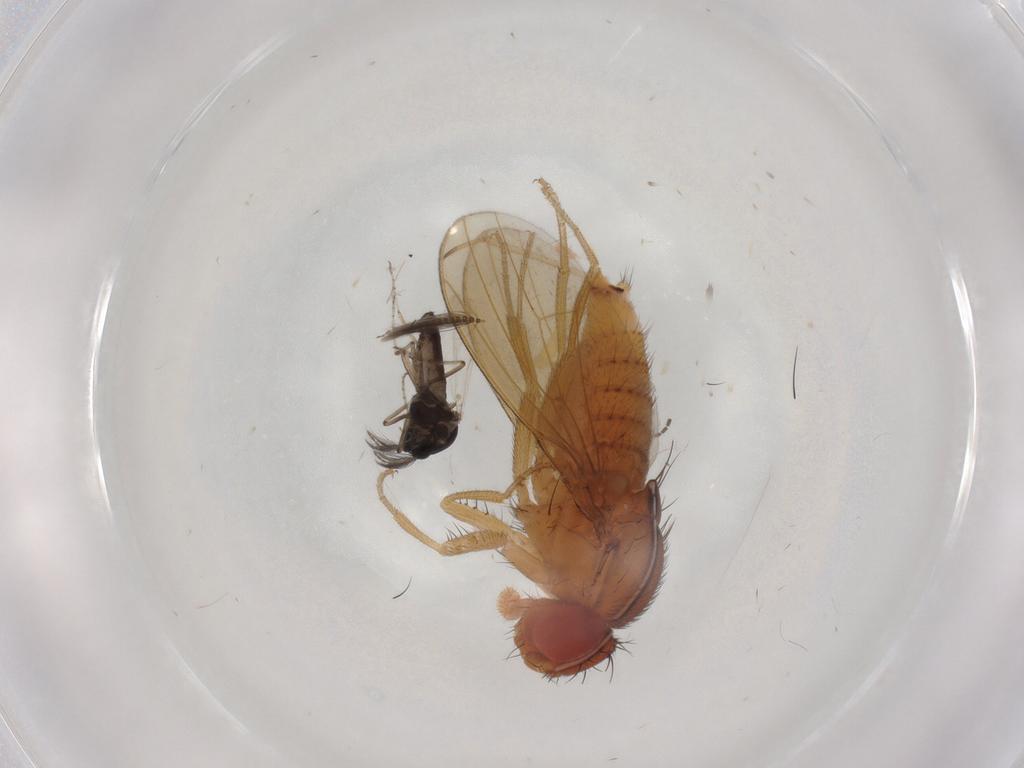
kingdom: Animalia
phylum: Arthropoda
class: Insecta
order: Diptera
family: Drosophilidae
